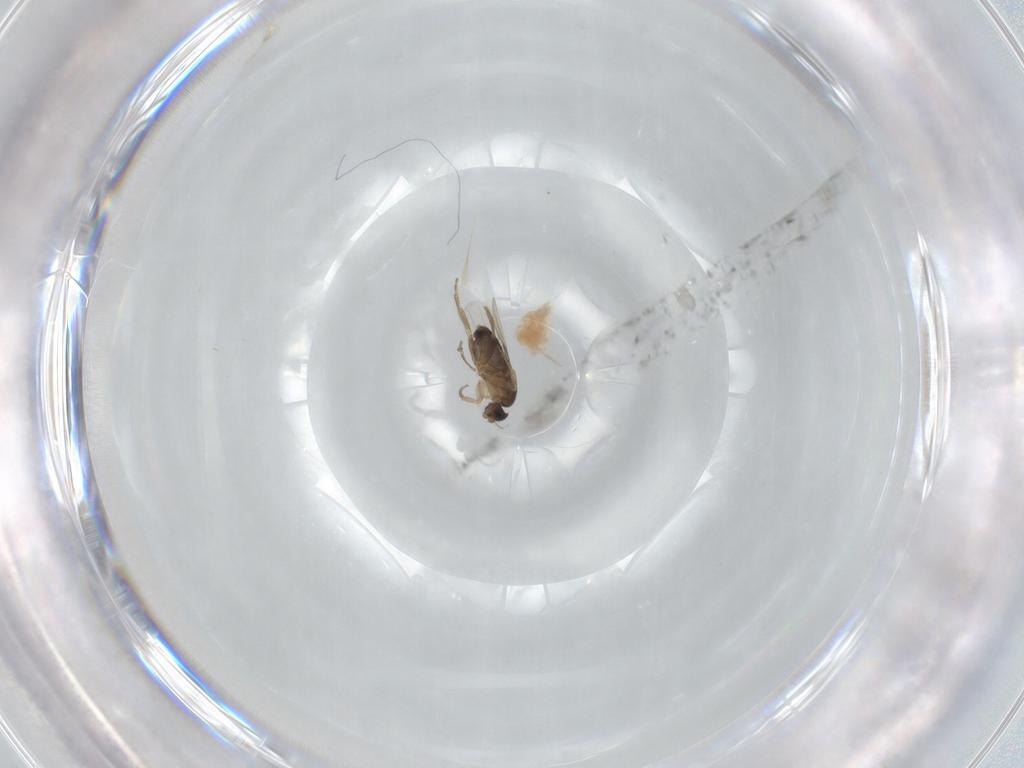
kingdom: Animalia
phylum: Arthropoda
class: Insecta
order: Diptera
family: Phoridae
